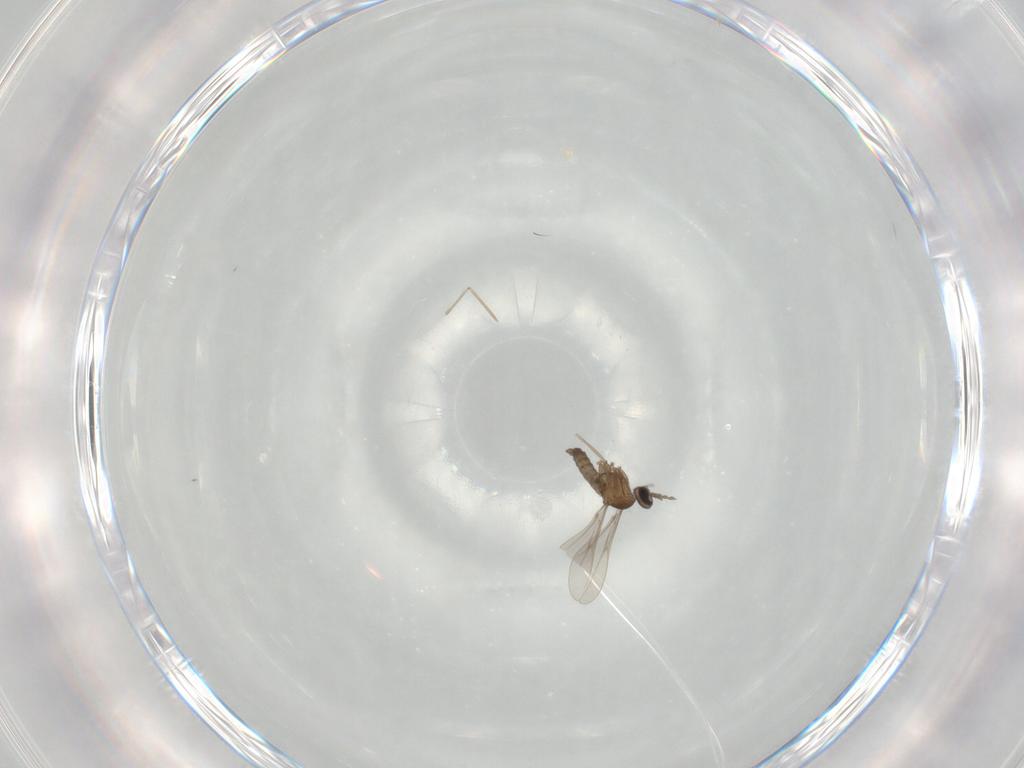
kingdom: Animalia
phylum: Arthropoda
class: Insecta
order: Diptera
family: Cecidomyiidae
